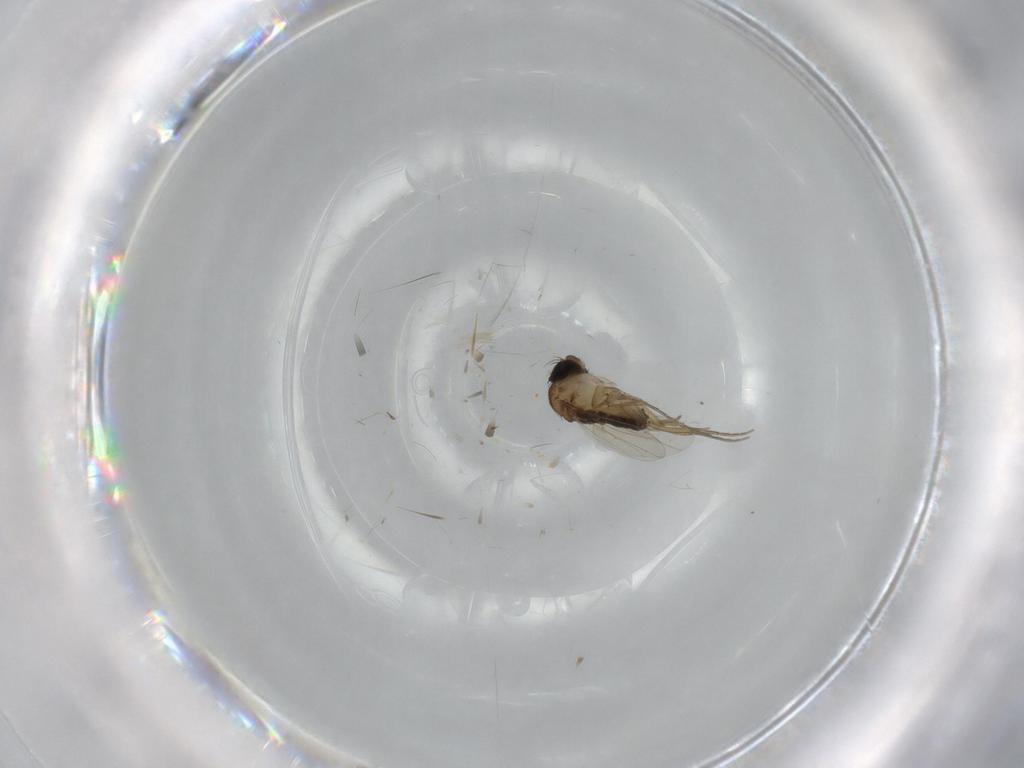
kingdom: Animalia
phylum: Arthropoda
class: Insecta
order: Diptera
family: Phoridae
